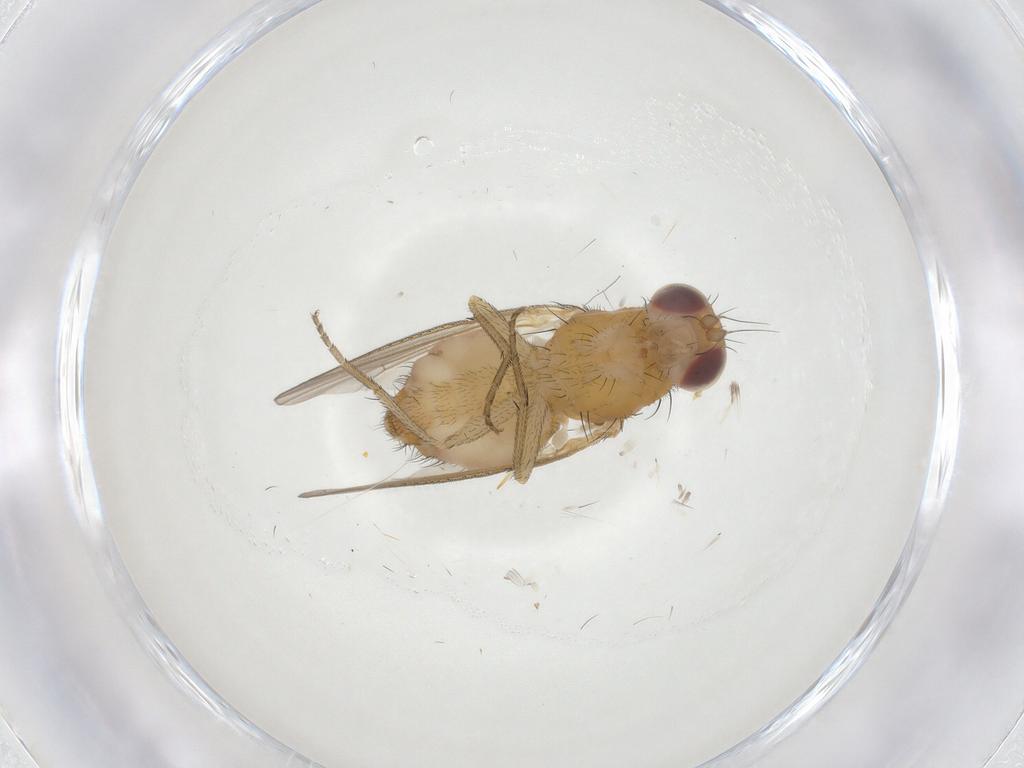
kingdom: Animalia
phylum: Arthropoda
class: Insecta
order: Diptera
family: Heleomyzidae
